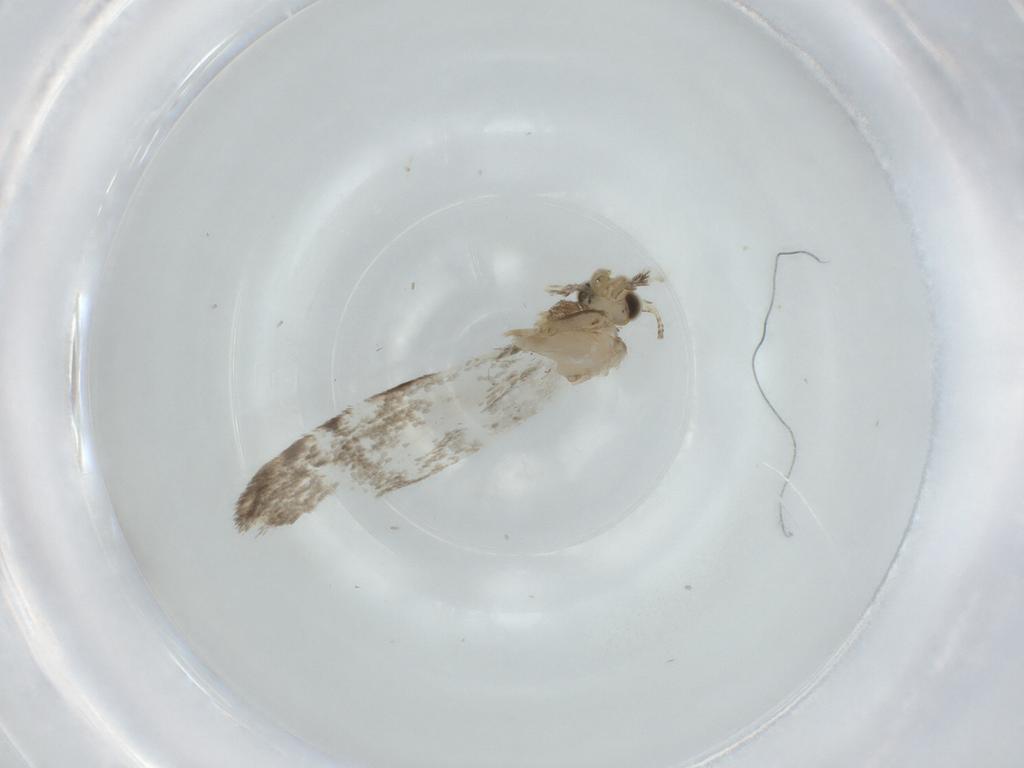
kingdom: Animalia
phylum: Arthropoda
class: Insecta
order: Lepidoptera
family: Tineidae
